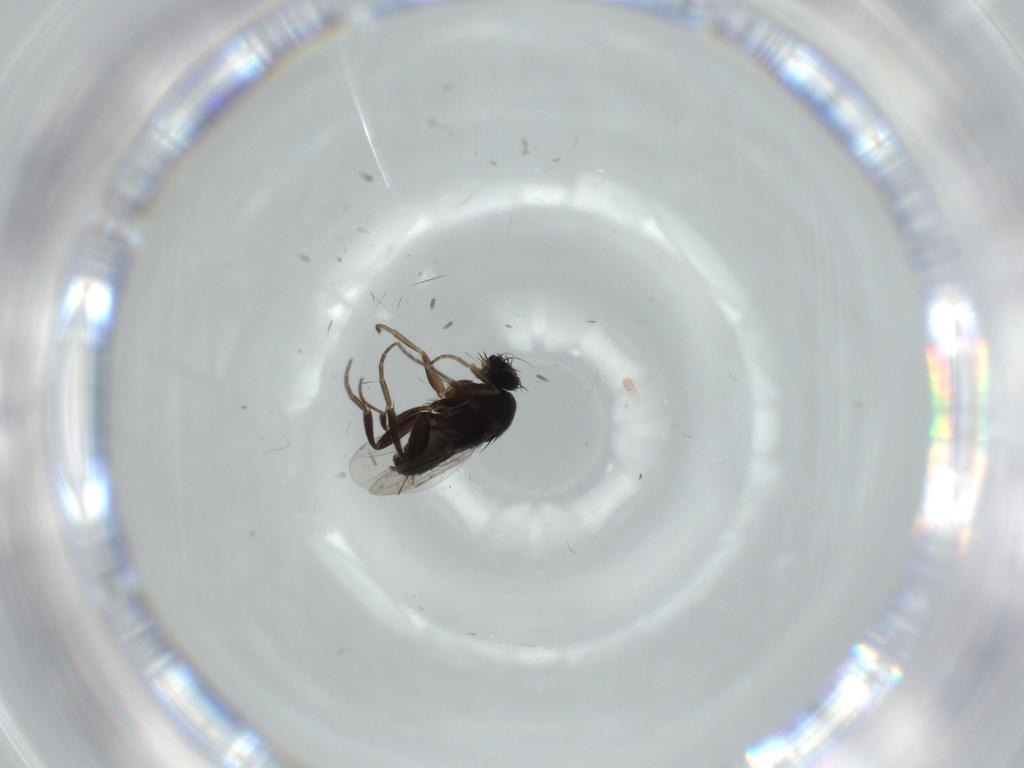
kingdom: Animalia
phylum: Arthropoda
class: Insecta
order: Diptera
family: Phoridae
